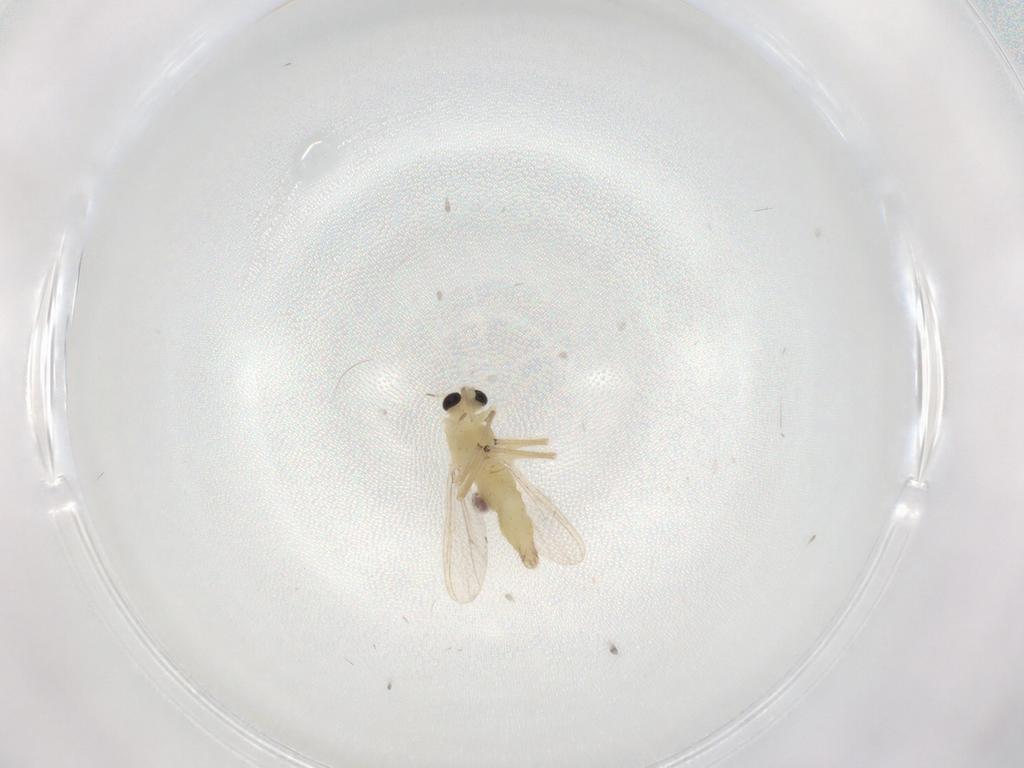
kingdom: Animalia
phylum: Arthropoda
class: Insecta
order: Diptera
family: Chironomidae
